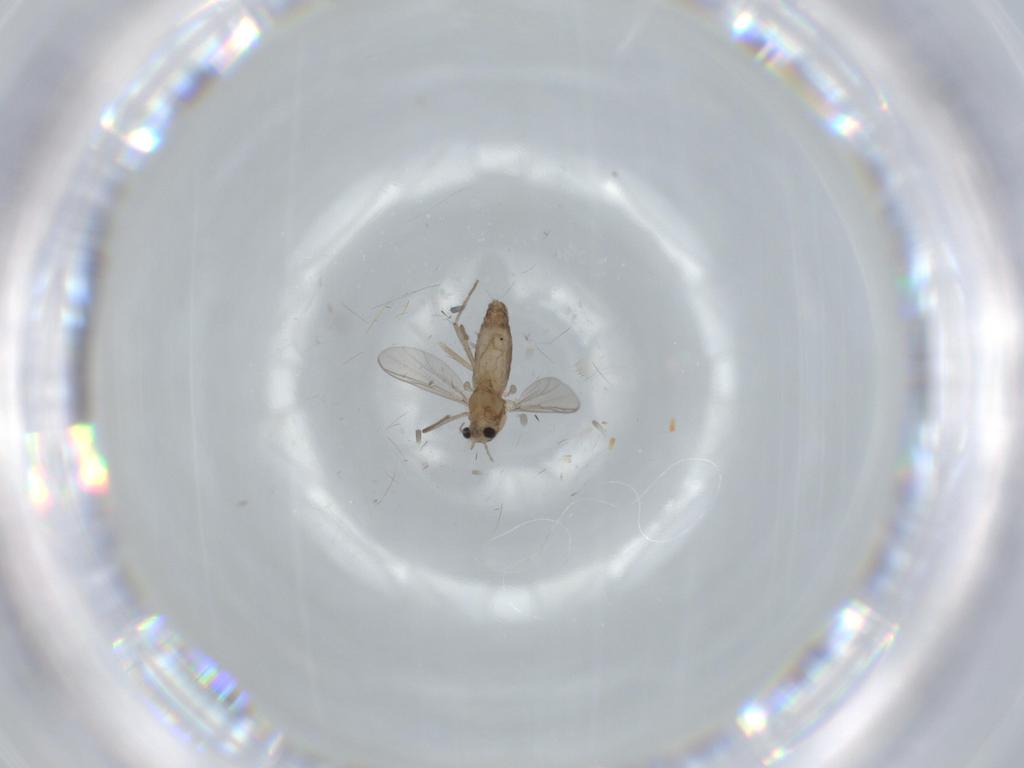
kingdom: Animalia
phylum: Arthropoda
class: Insecta
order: Diptera
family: Chironomidae
